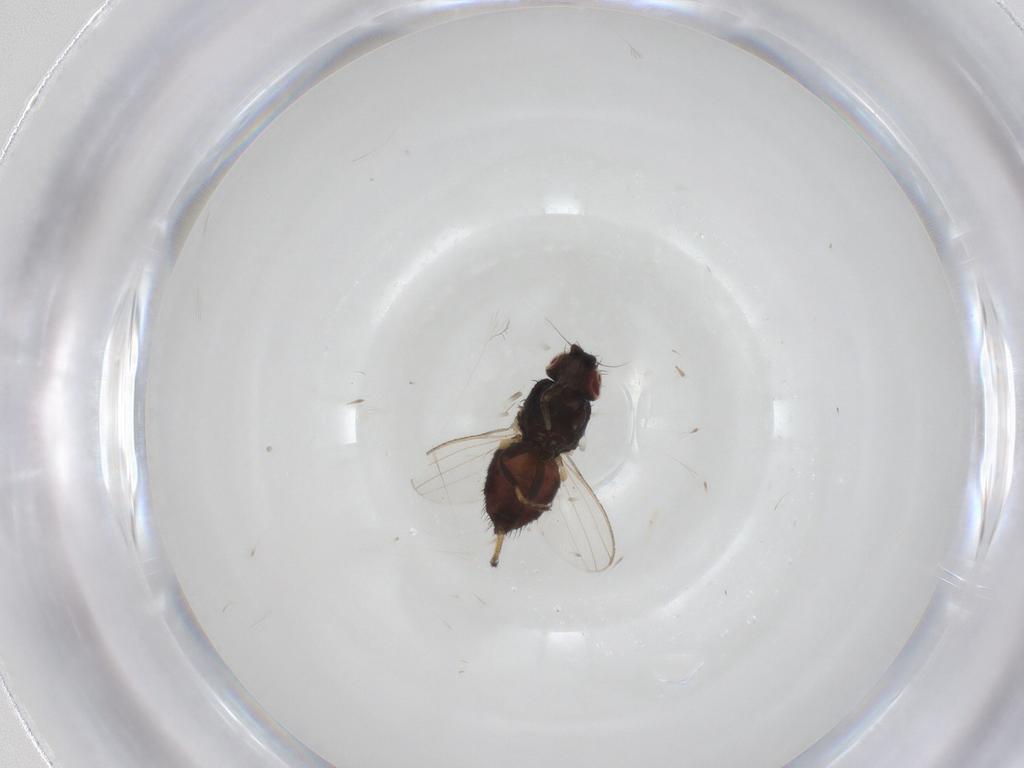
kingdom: Animalia
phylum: Arthropoda
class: Insecta
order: Diptera
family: Milichiidae
